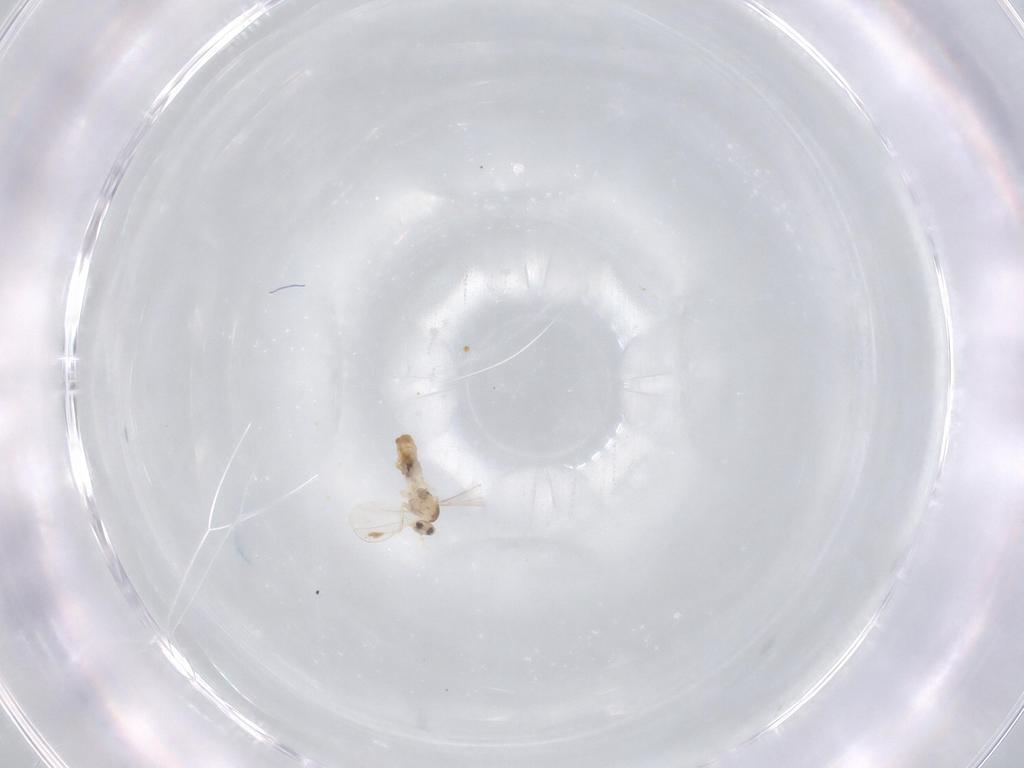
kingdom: Animalia
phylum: Arthropoda
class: Insecta
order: Diptera
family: Cecidomyiidae
